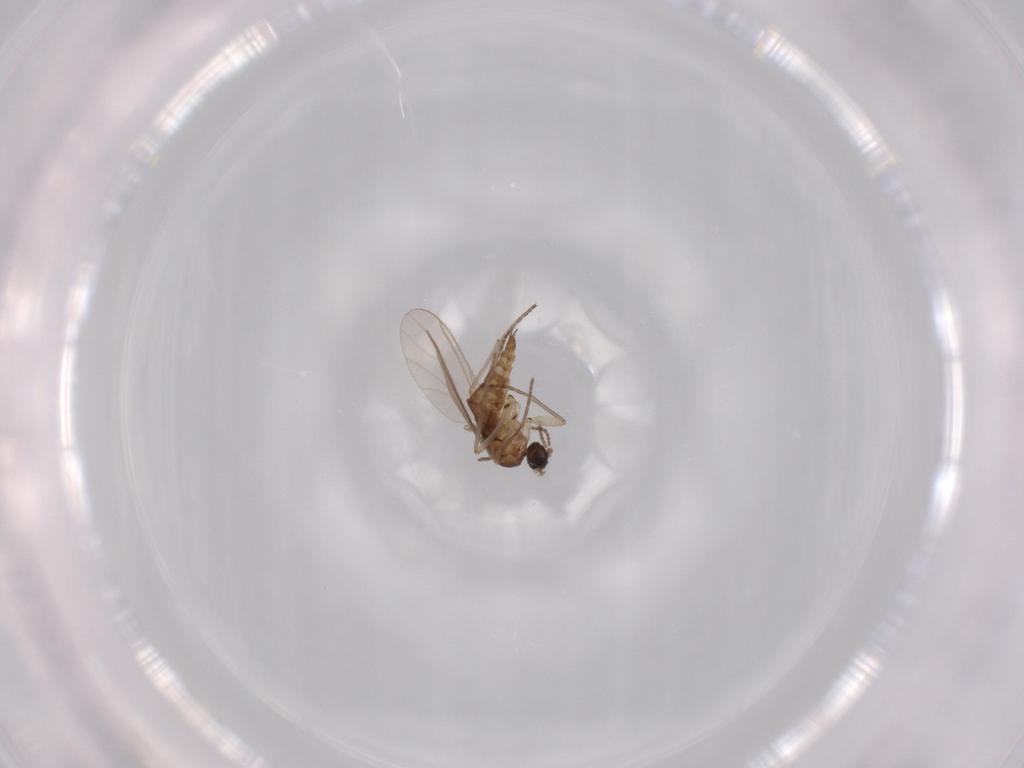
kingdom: Animalia
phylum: Arthropoda
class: Insecta
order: Diptera
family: Sciaridae
